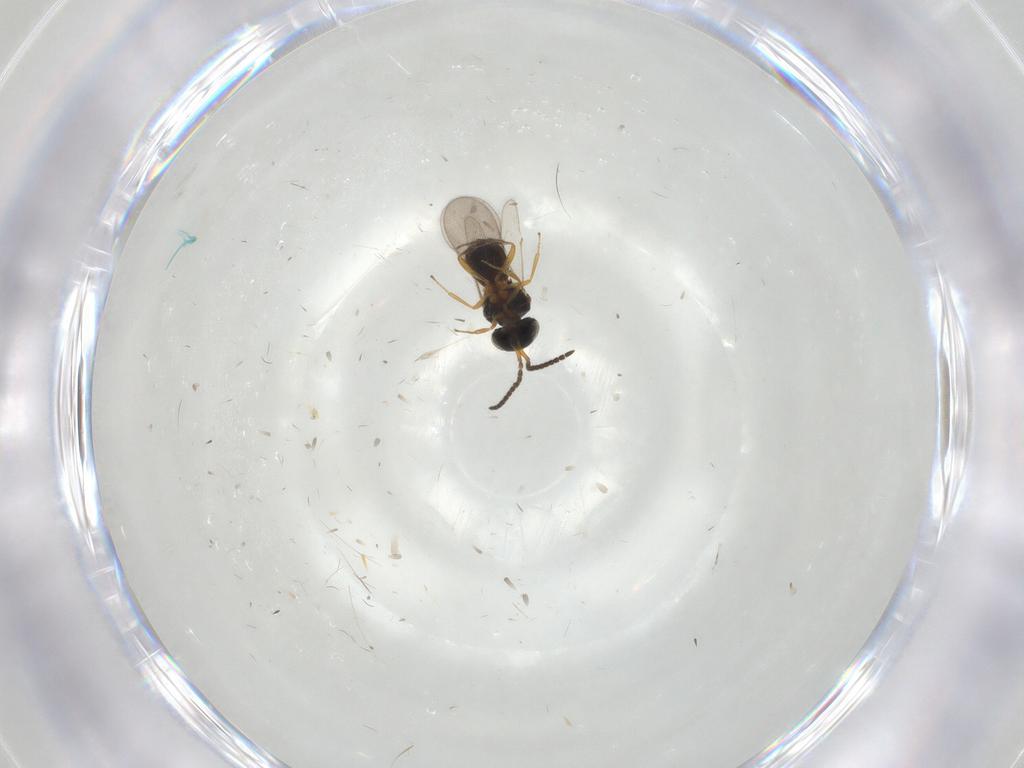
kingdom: Animalia
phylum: Arthropoda
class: Insecta
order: Hymenoptera
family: Scelionidae
